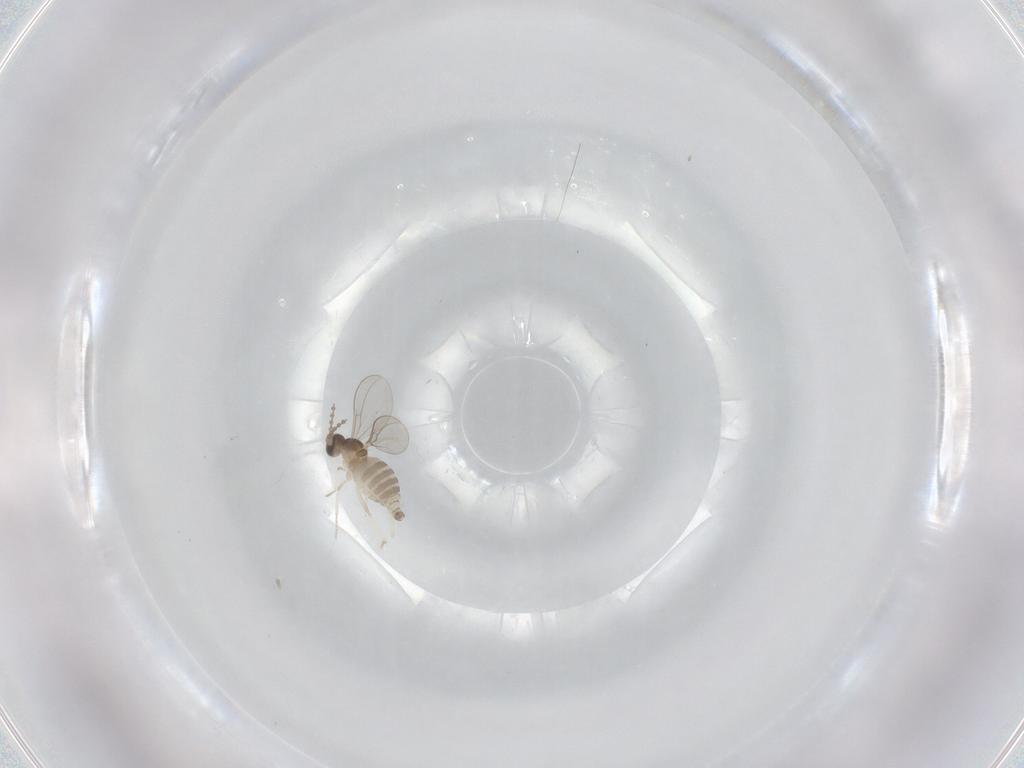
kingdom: Animalia
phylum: Arthropoda
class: Insecta
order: Diptera
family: Cecidomyiidae
